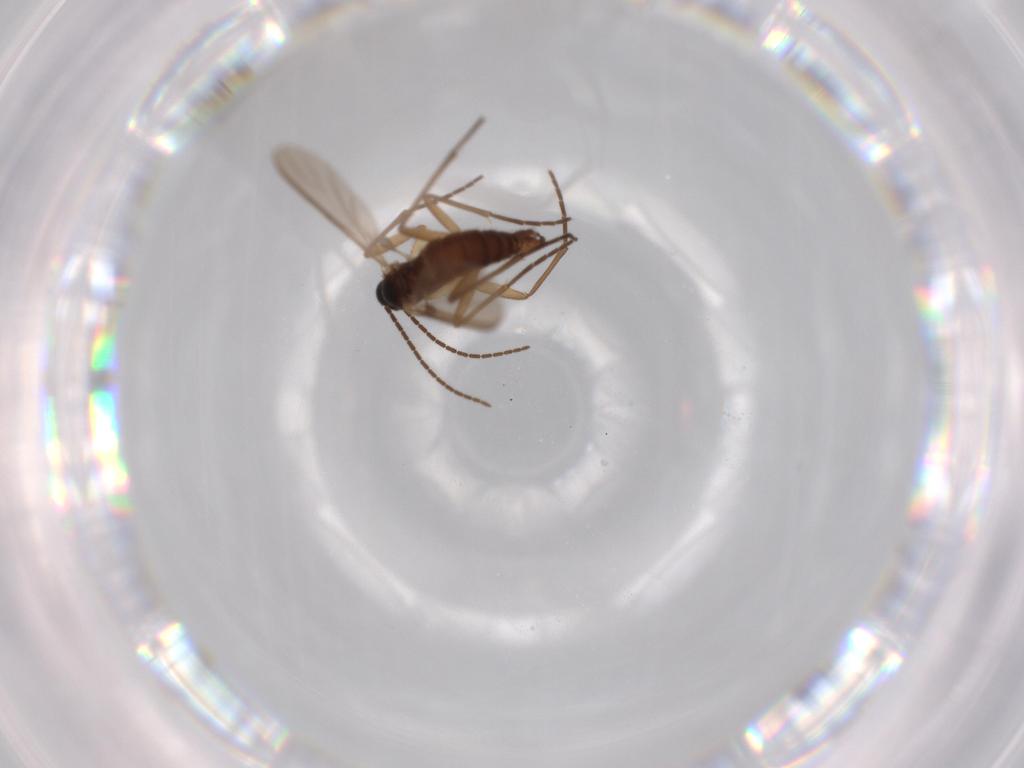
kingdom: Animalia
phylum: Arthropoda
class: Insecta
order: Diptera
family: Sciaridae
